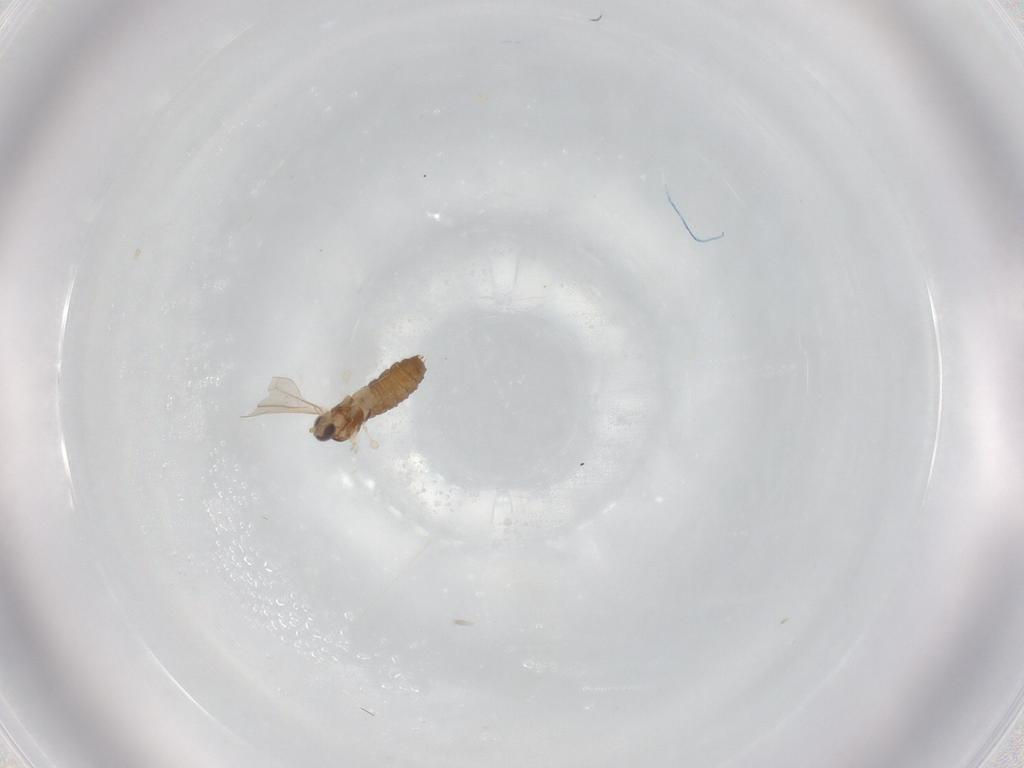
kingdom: Animalia
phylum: Arthropoda
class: Insecta
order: Diptera
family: Cecidomyiidae
